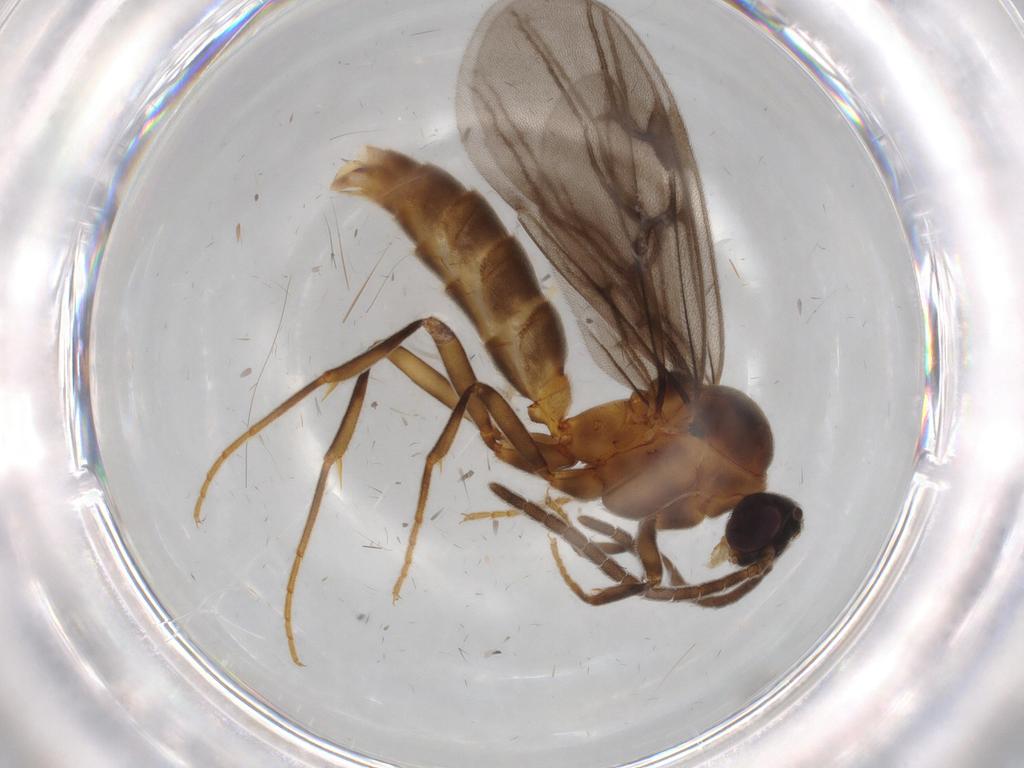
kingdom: Animalia
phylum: Arthropoda
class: Insecta
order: Hymenoptera
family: Formicidae
